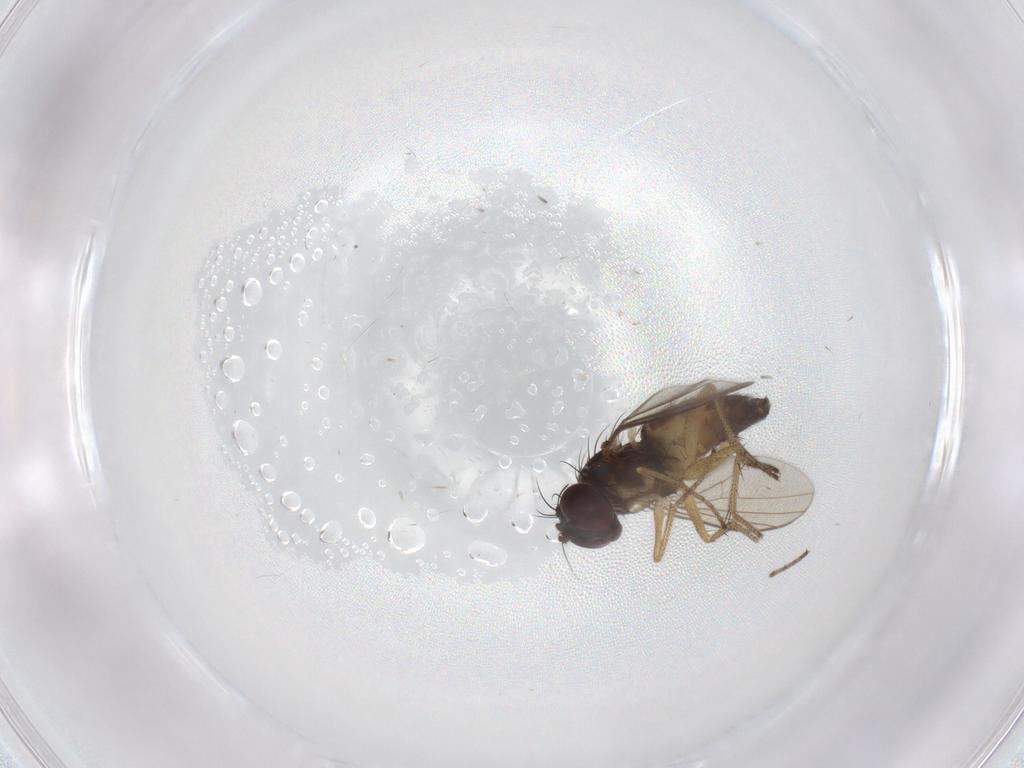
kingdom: Animalia
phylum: Arthropoda
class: Insecta
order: Diptera
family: Dolichopodidae
